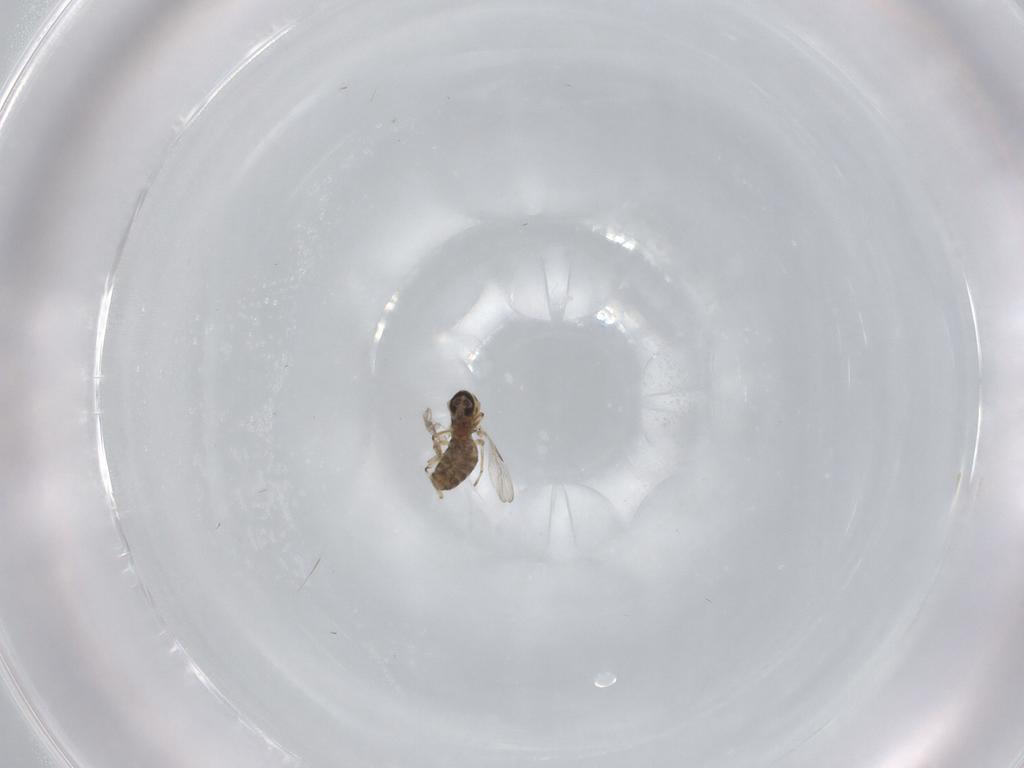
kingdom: Animalia
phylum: Arthropoda
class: Insecta
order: Diptera
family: Ceratopogonidae
